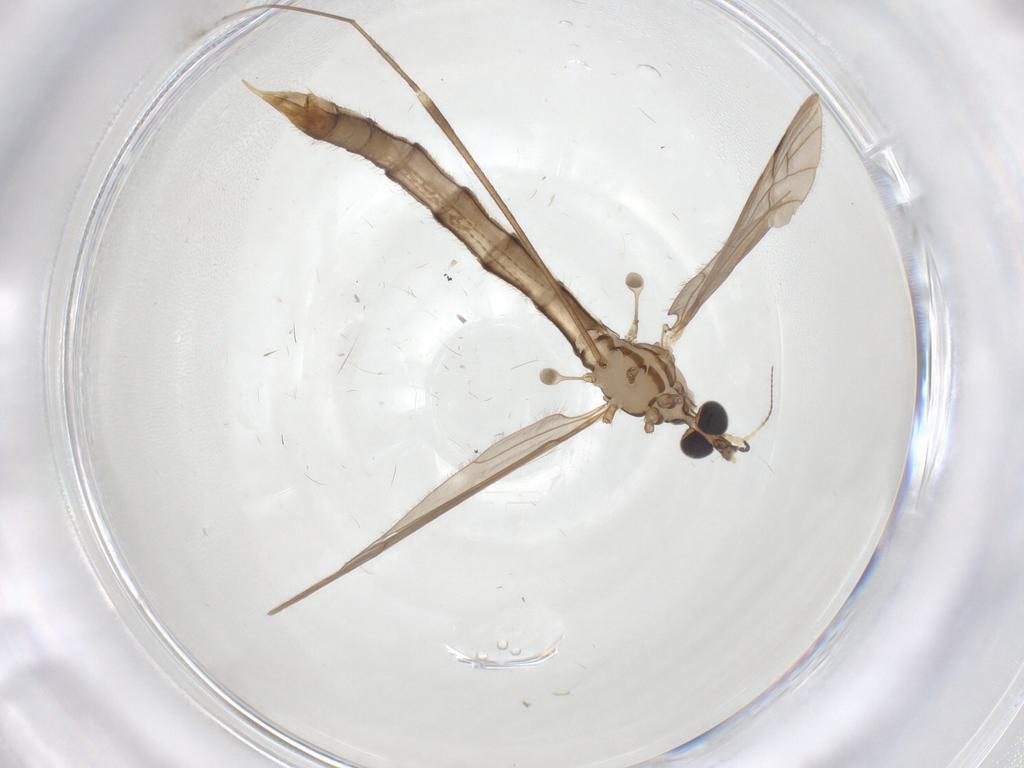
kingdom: Animalia
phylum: Arthropoda
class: Insecta
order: Diptera
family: Limoniidae
